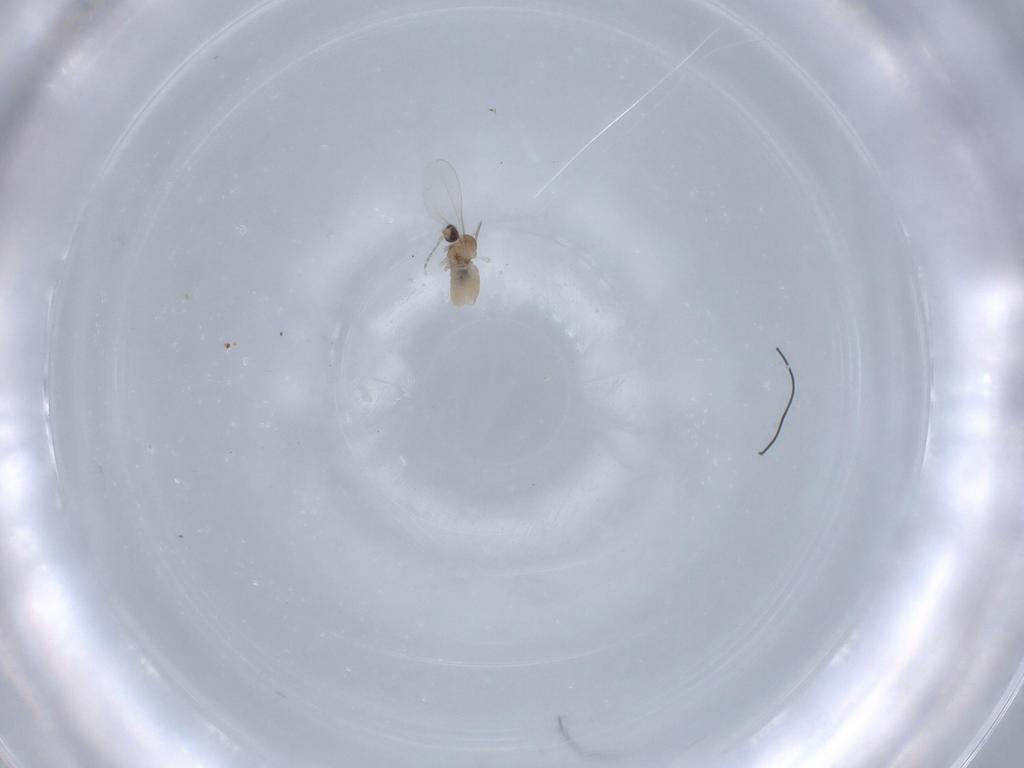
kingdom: Animalia
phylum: Arthropoda
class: Insecta
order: Diptera
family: Cecidomyiidae
